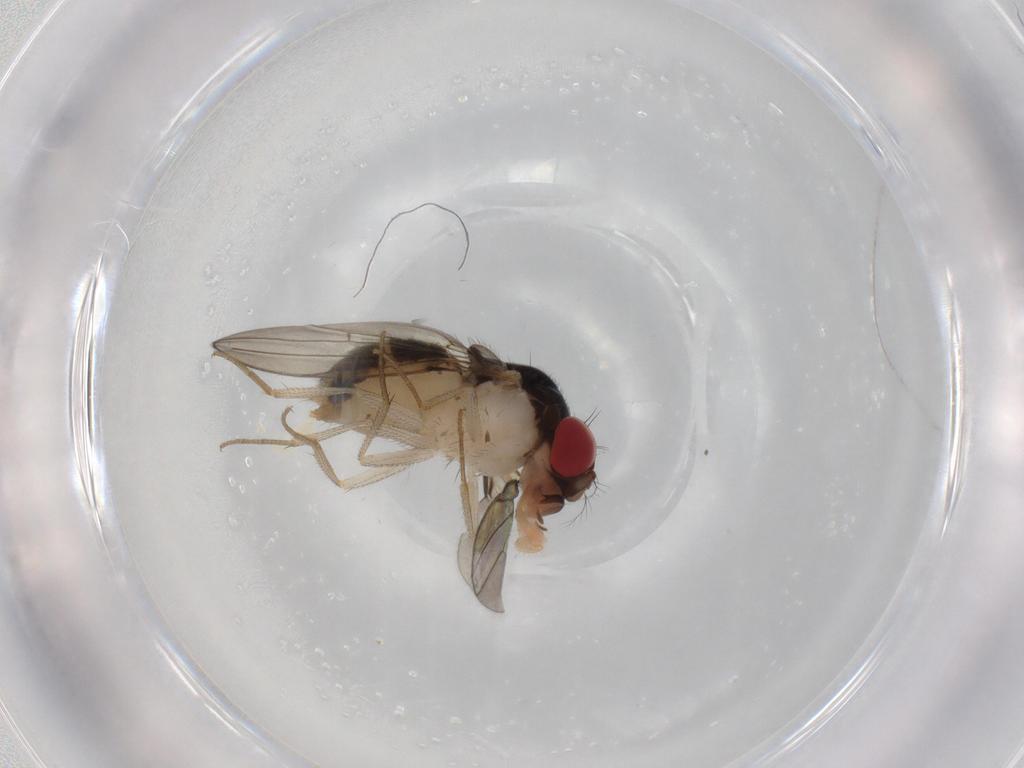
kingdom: Animalia
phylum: Arthropoda
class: Insecta
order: Diptera
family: Drosophilidae
